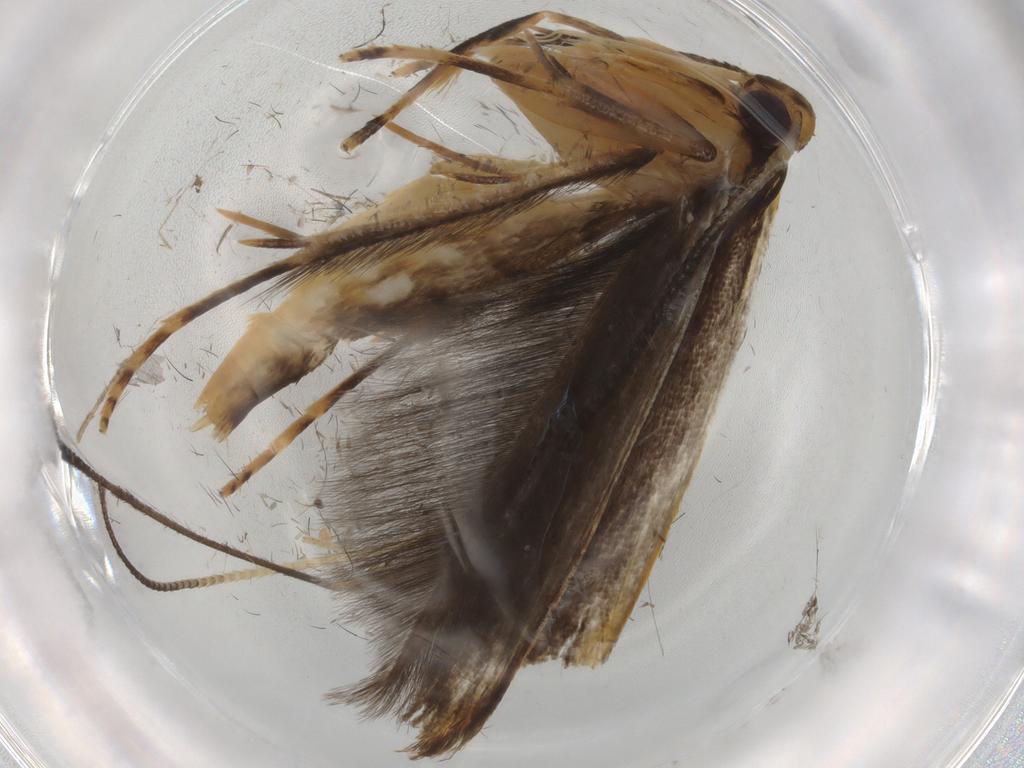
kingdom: Animalia
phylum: Arthropoda
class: Insecta
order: Lepidoptera
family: Pterolonchidae
